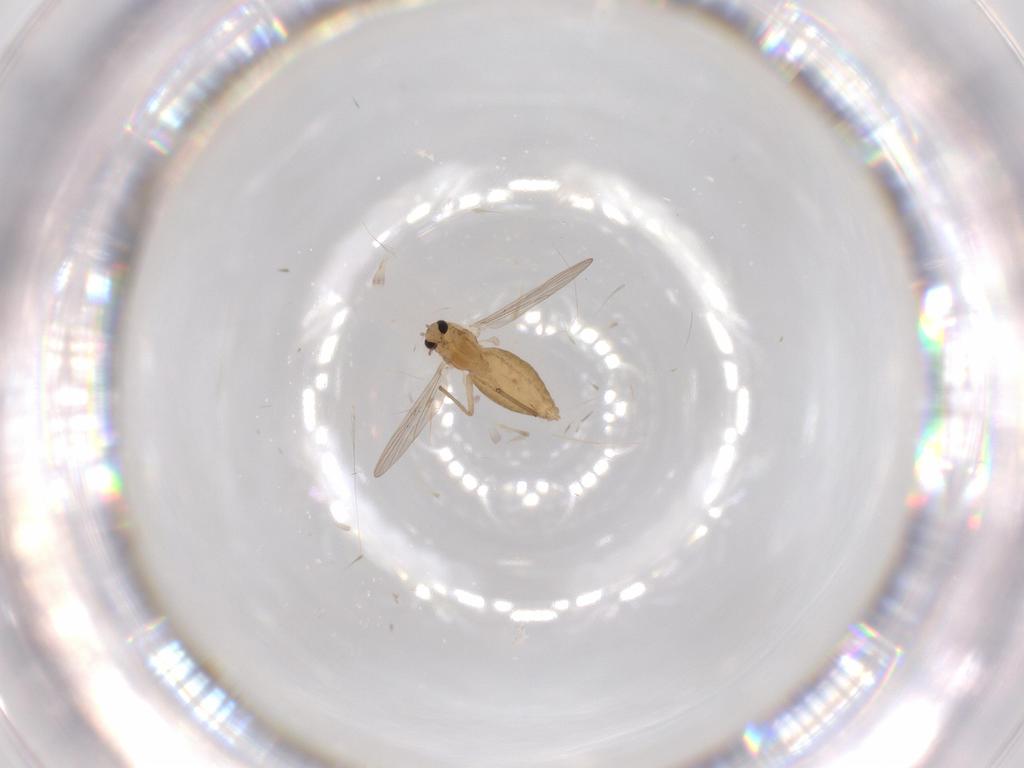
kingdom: Animalia
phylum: Arthropoda
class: Insecta
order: Diptera
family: Chironomidae
